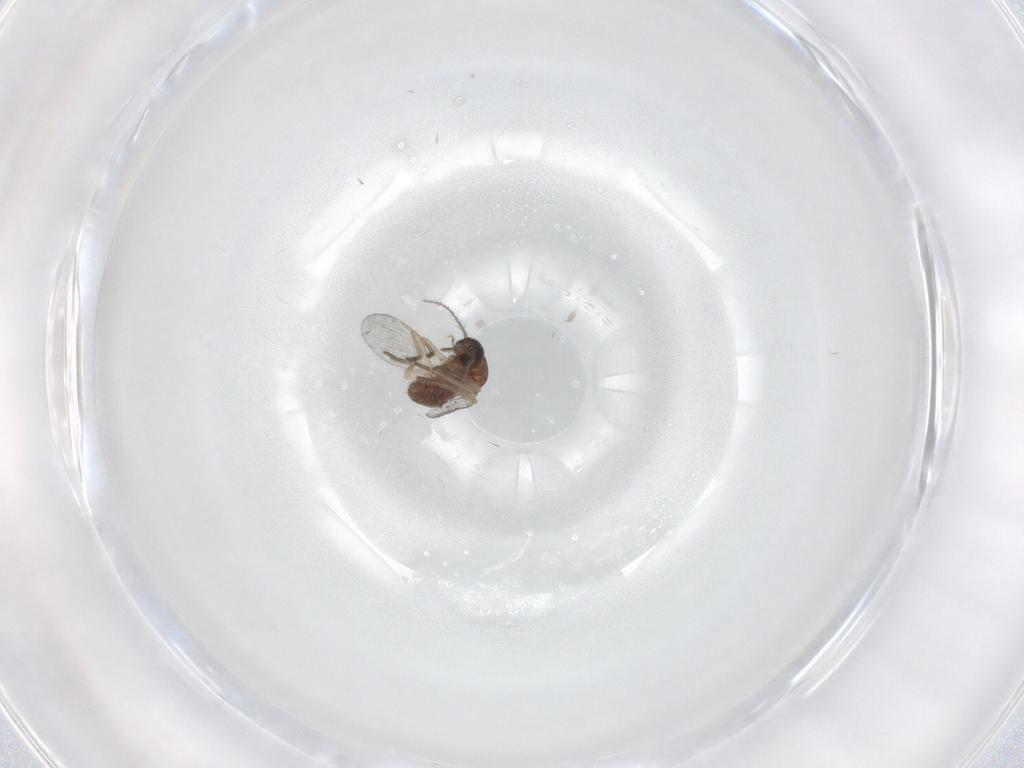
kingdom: Animalia
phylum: Arthropoda
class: Insecta
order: Diptera
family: Ceratopogonidae
